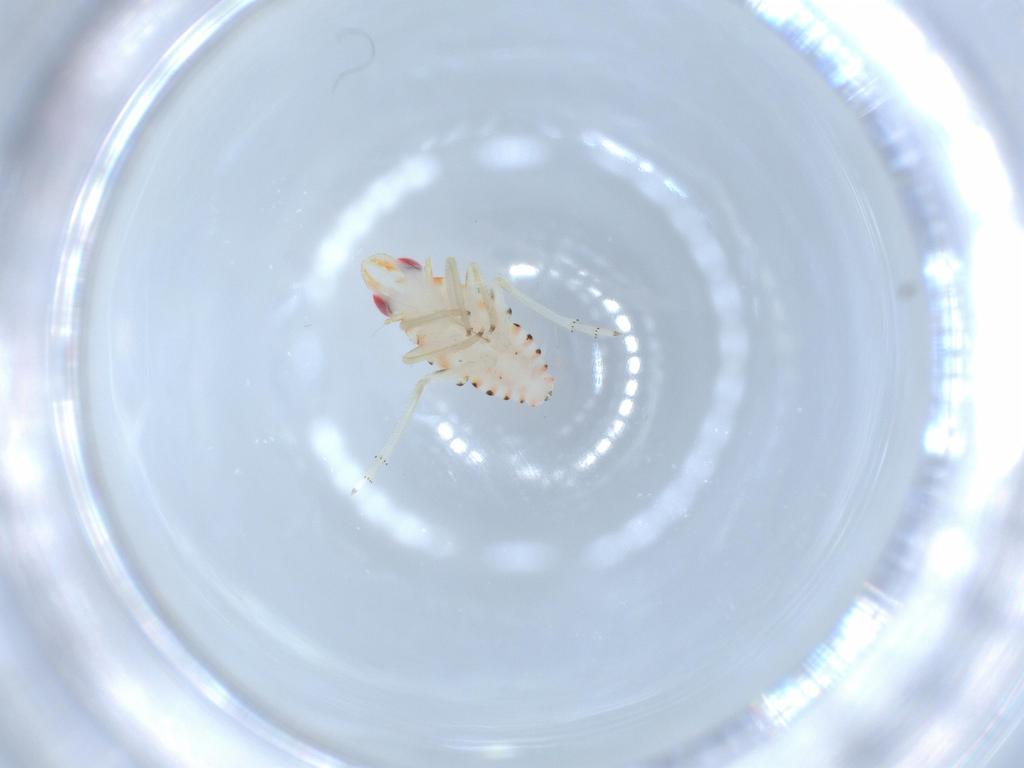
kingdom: Animalia
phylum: Arthropoda
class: Insecta
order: Hemiptera
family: Tropiduchidae
